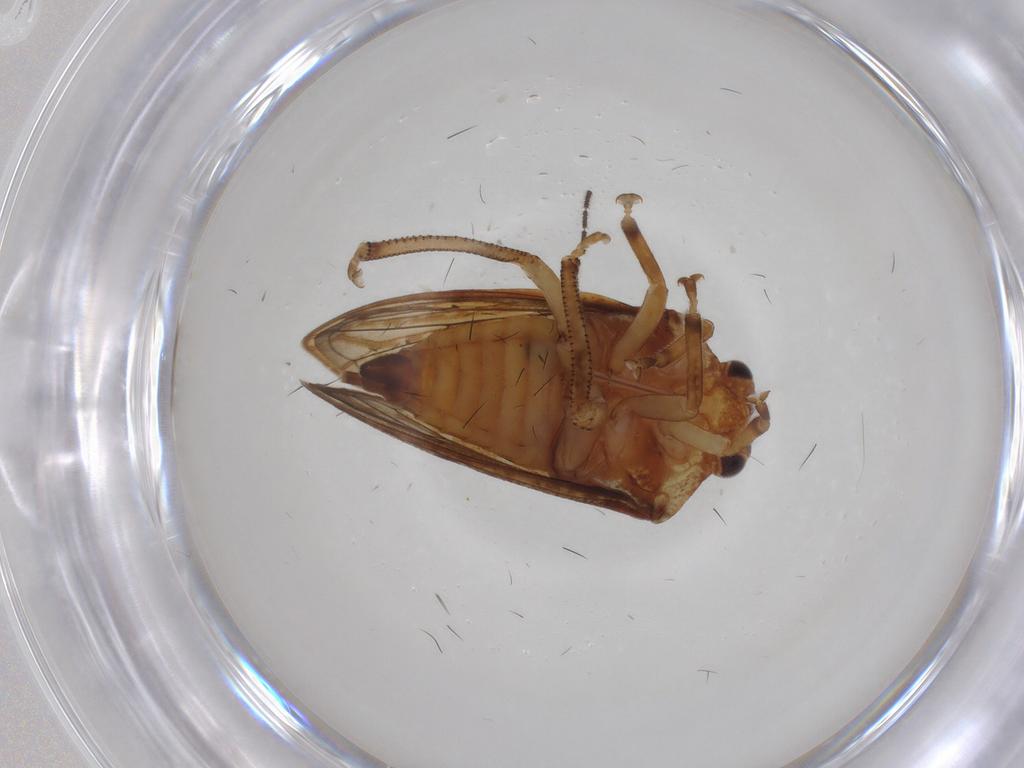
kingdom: Animalia
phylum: Arthropoda
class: Insecta
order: Hemiptera
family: Aetalionidae
